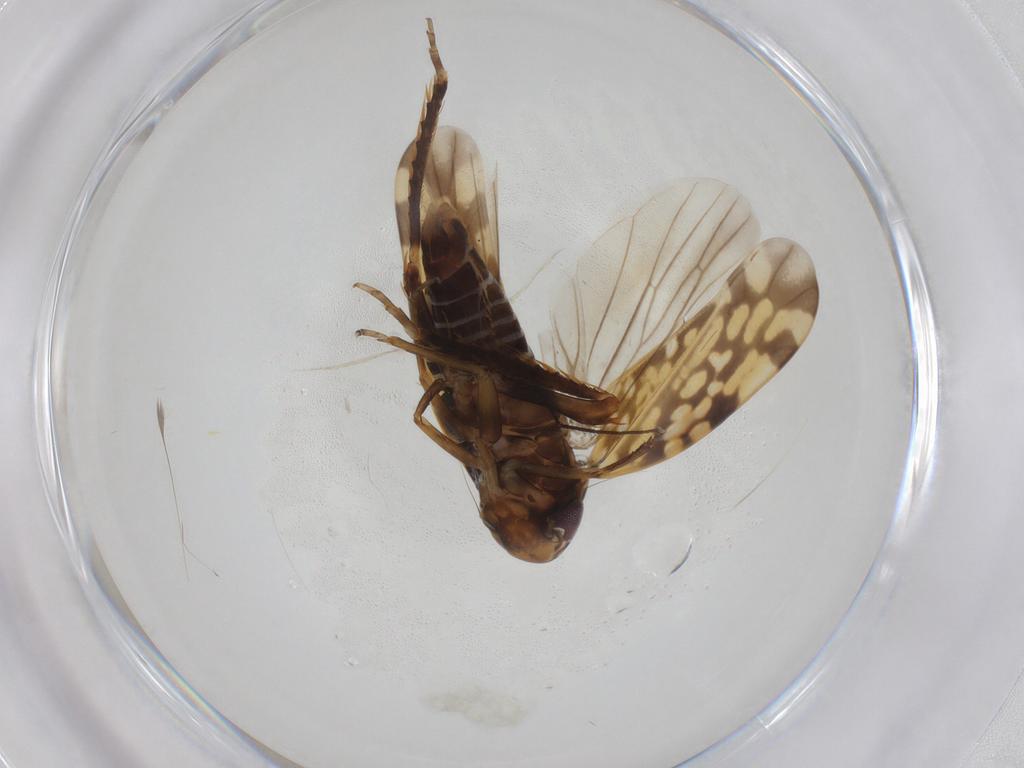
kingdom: Animalia
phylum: Arthropoda
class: Insecta
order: Hemiptera
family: Cicadellidae
